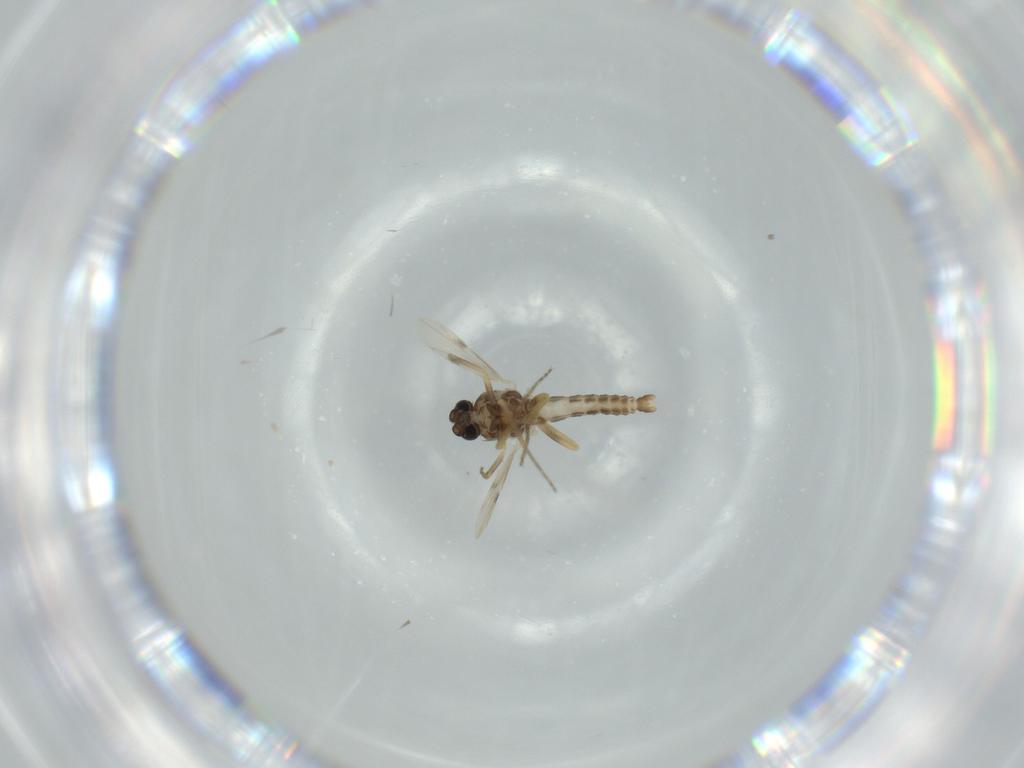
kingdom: Animalia
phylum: Arthropoda
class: Insecta
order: Diptera
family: Ceratopogonidae
